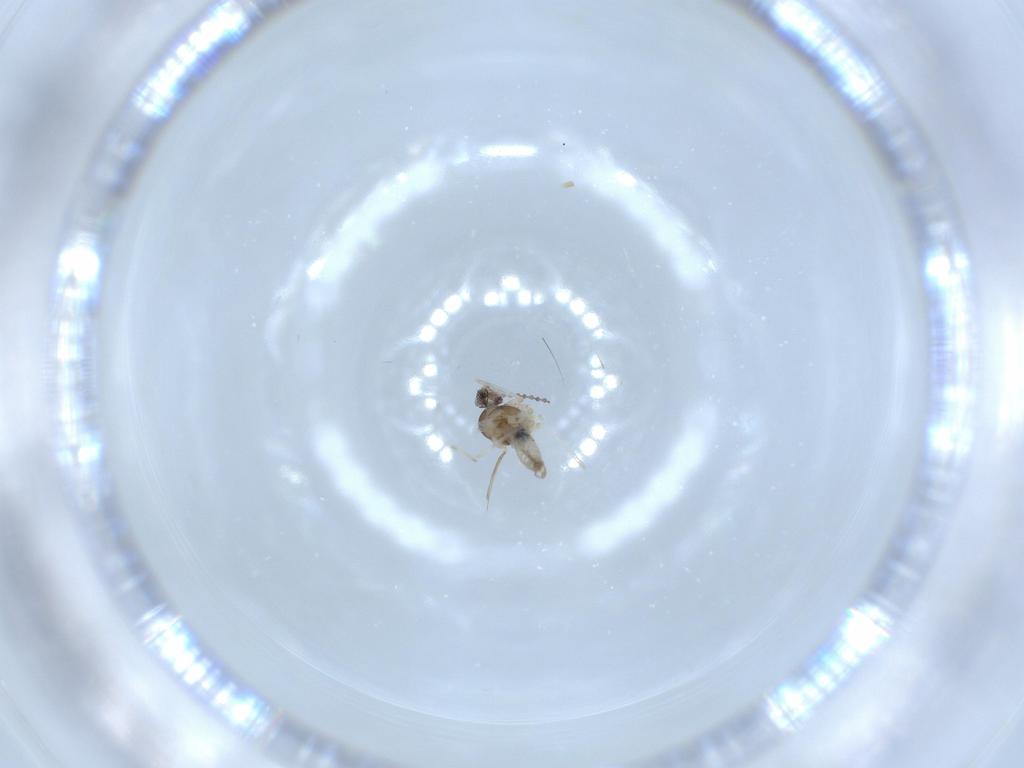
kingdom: Animalia
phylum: Arthropoda
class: Insecta
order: Diptera
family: Cecidomyiidae
